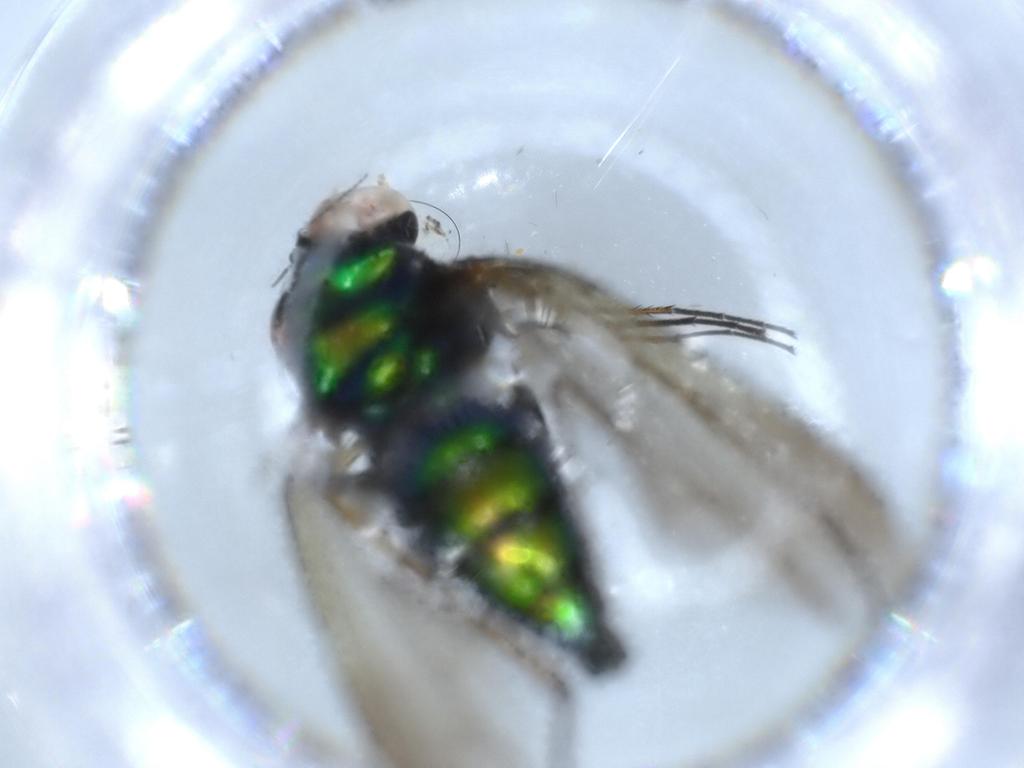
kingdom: Animalia
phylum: Arthropoda
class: Insecta
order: Diptera
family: Dolichopodidae
